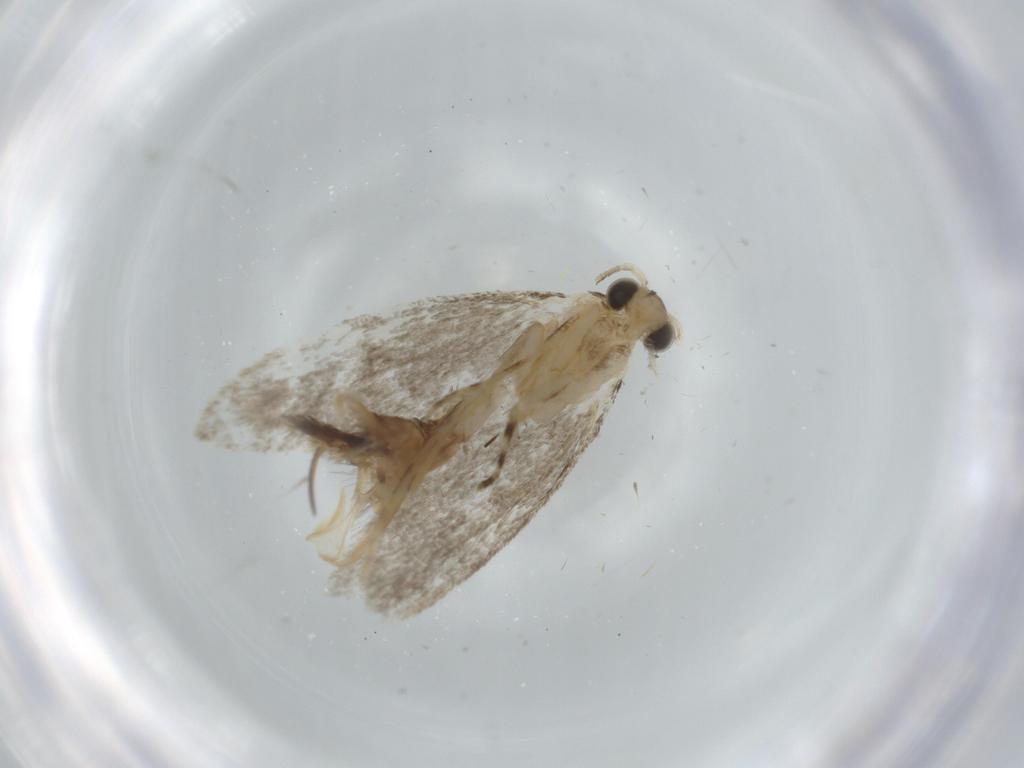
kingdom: Animalia
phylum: Arthropoda
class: Insecta
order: Lepidoptera
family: Tineidae
